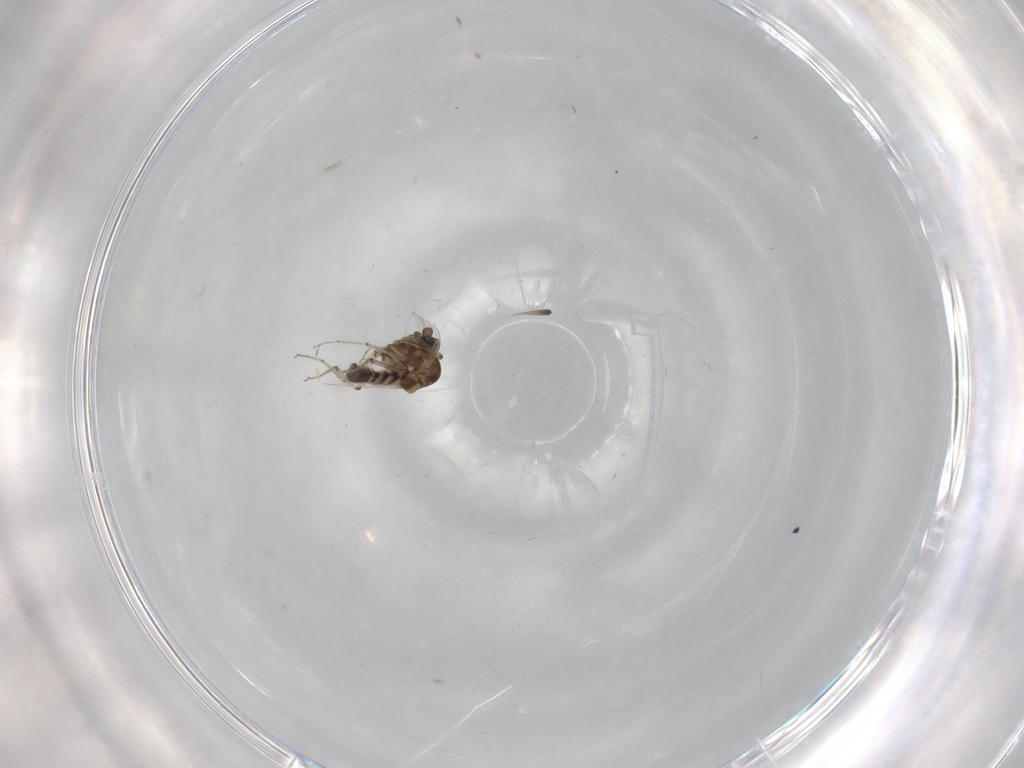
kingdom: Animalia
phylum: Arthropoda
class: Insecta
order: Diptera
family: Ceratopogonidae
